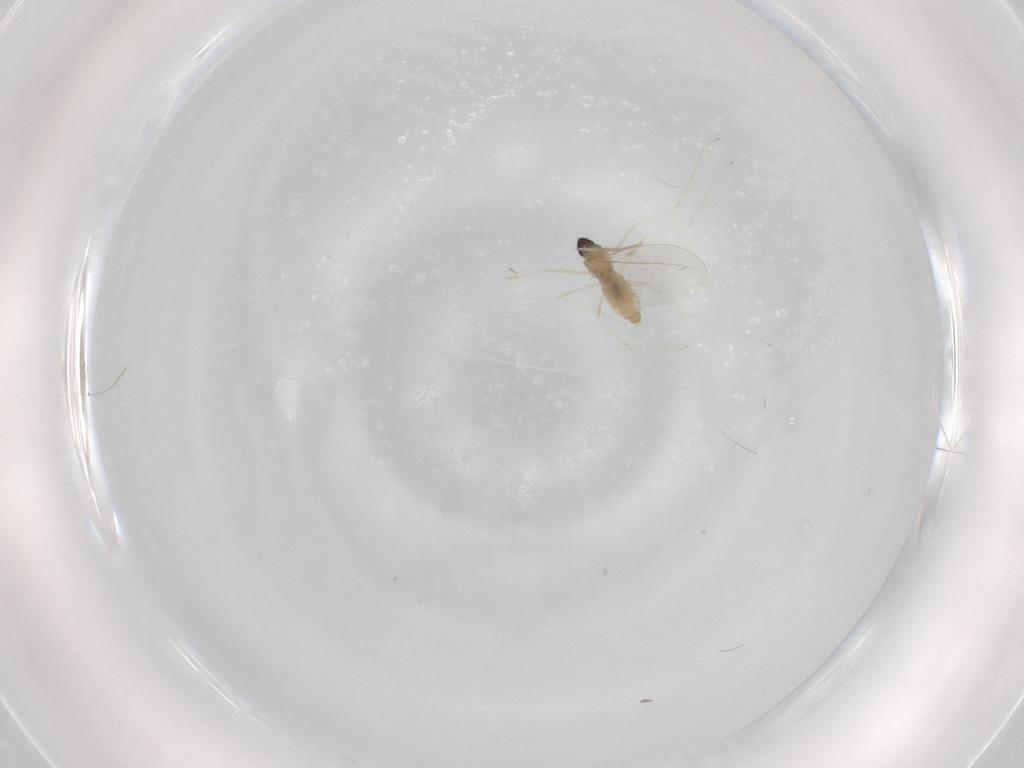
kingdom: Animalia
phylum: Arthropoda
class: Insecta
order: Diptera
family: Cecidomyiidae
